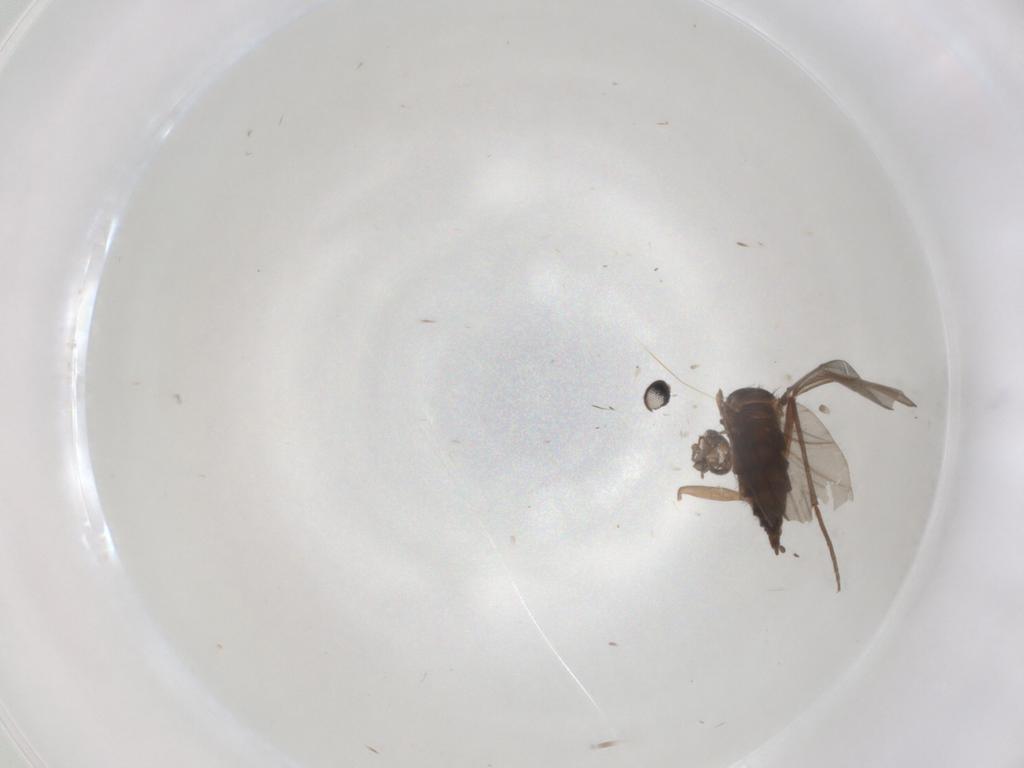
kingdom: Animalia
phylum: Arthropoda
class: Insecta
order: Diptera
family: Sciaridae
